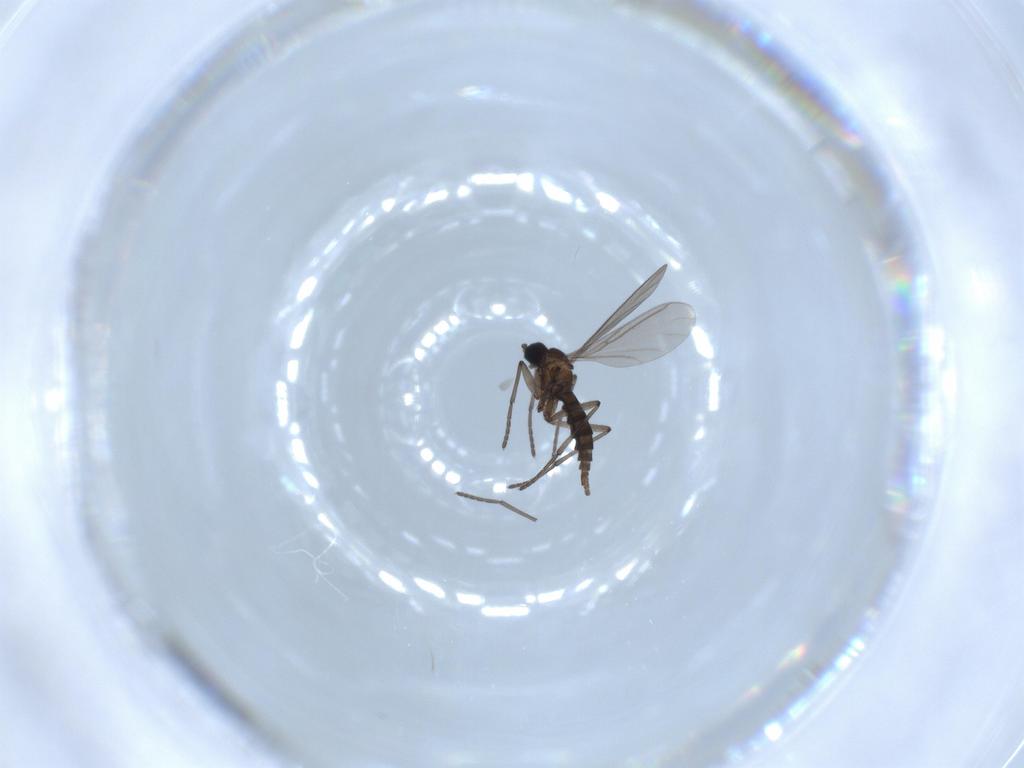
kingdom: Animalia
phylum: Arthropoda
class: Insecta
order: Diptera
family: Sciaridae
